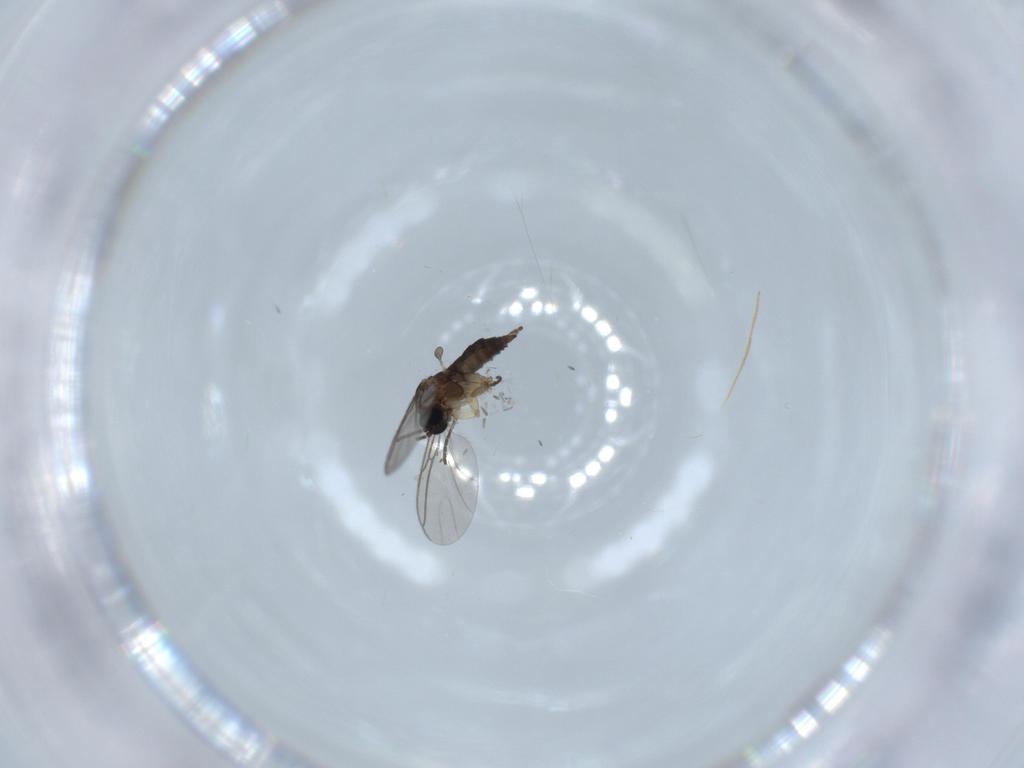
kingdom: Animalia
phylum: Arthropoda
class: Insecta
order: Diptera
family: Sciaridae
